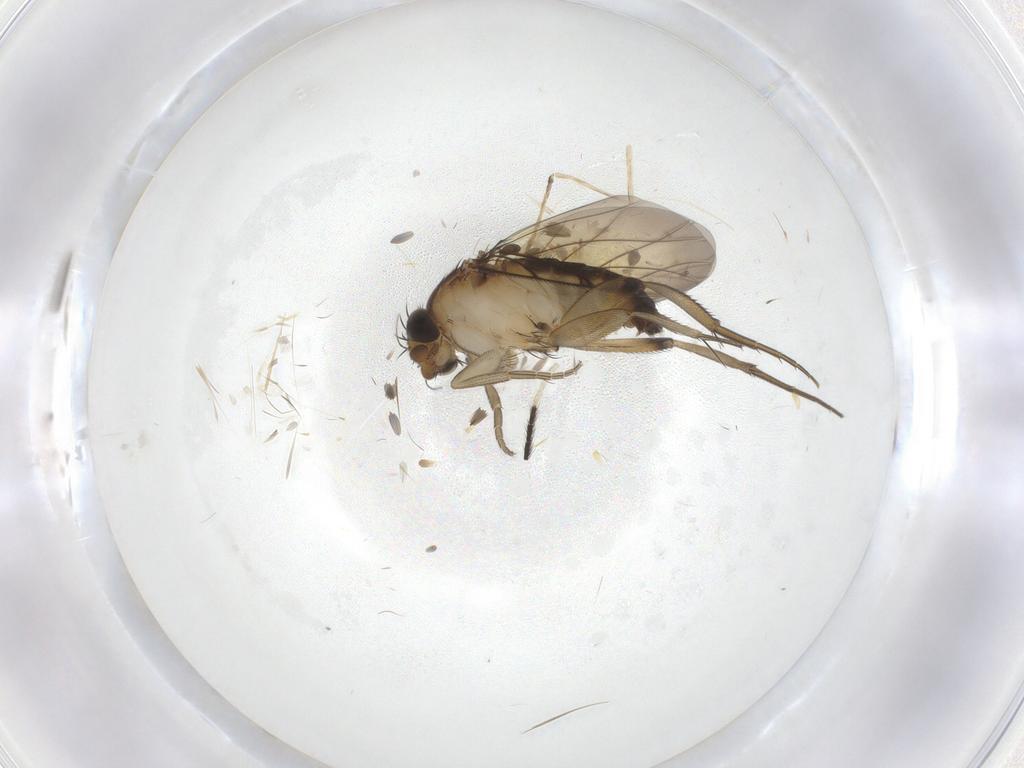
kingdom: Animalia
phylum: Arthropoda
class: Insecta
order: Diptera
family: Phoridae
